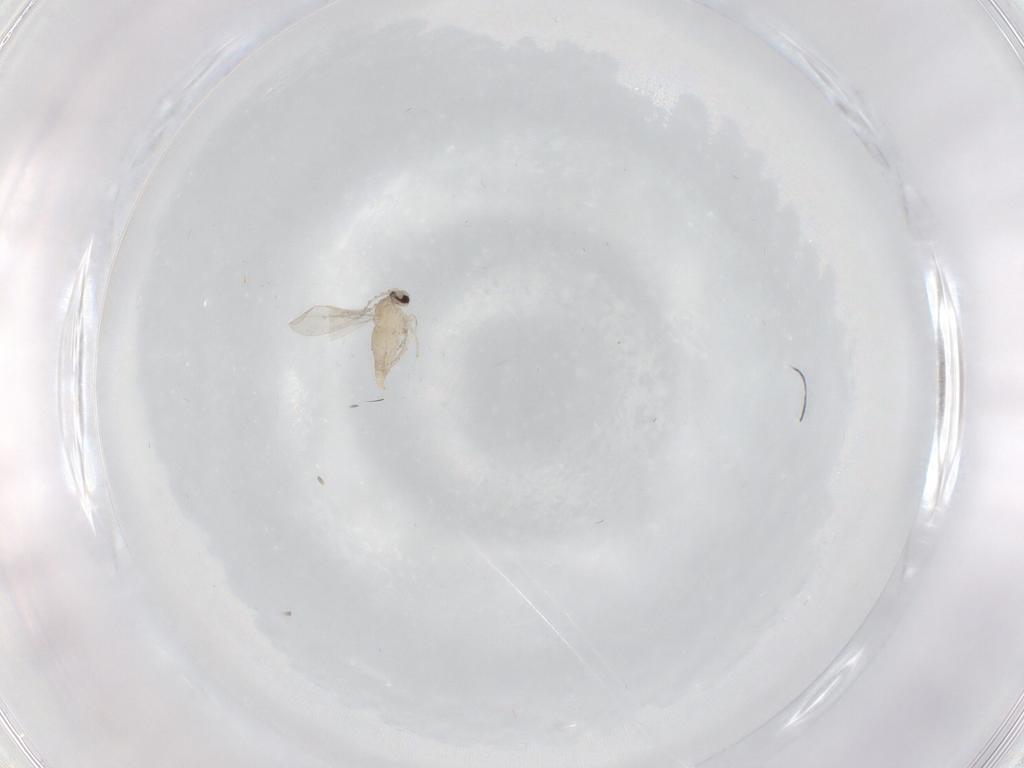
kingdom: Animalia
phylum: Arthropoda
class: Insecta
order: Diptera
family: Cecidomyiidae
